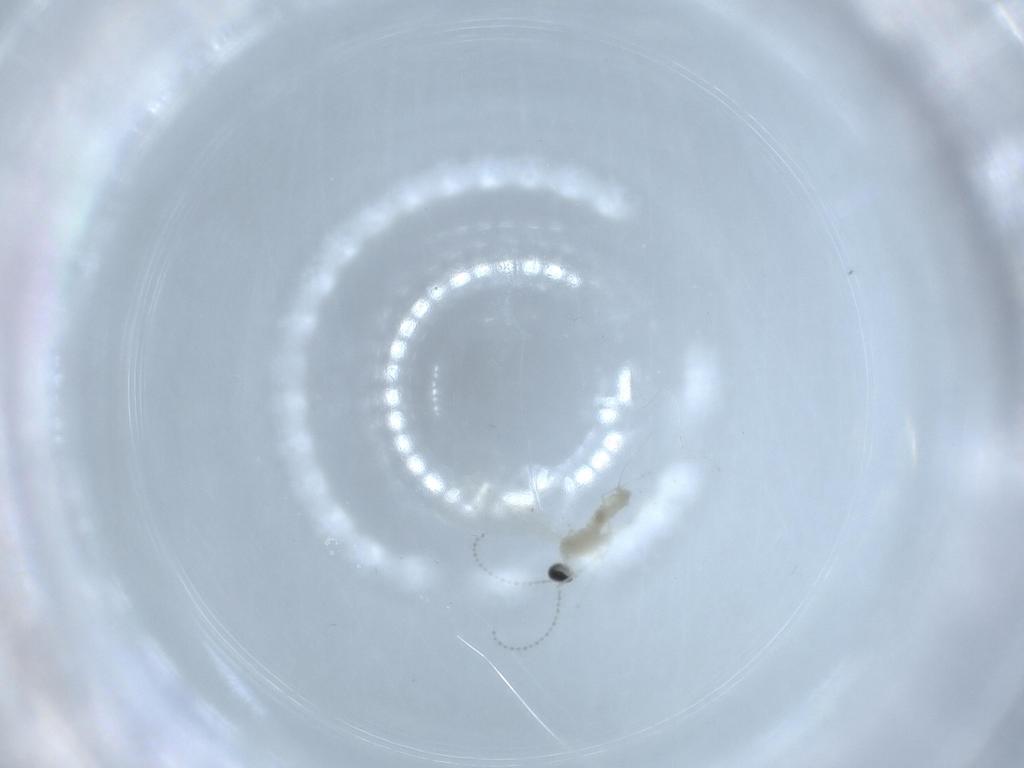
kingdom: Animalia
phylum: Arthropoda
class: Insecta
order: Diptera
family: Cecidomyiidae
